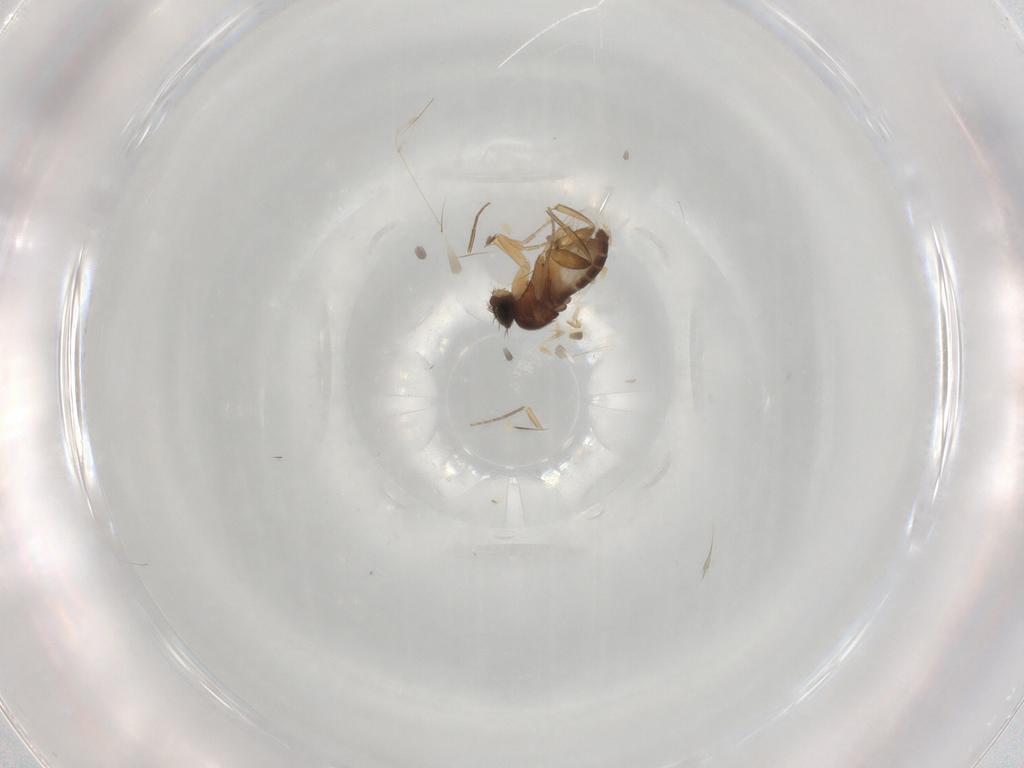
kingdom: Animalia
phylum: Arthropoda
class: Insecta
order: Diptera
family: Phoridae
